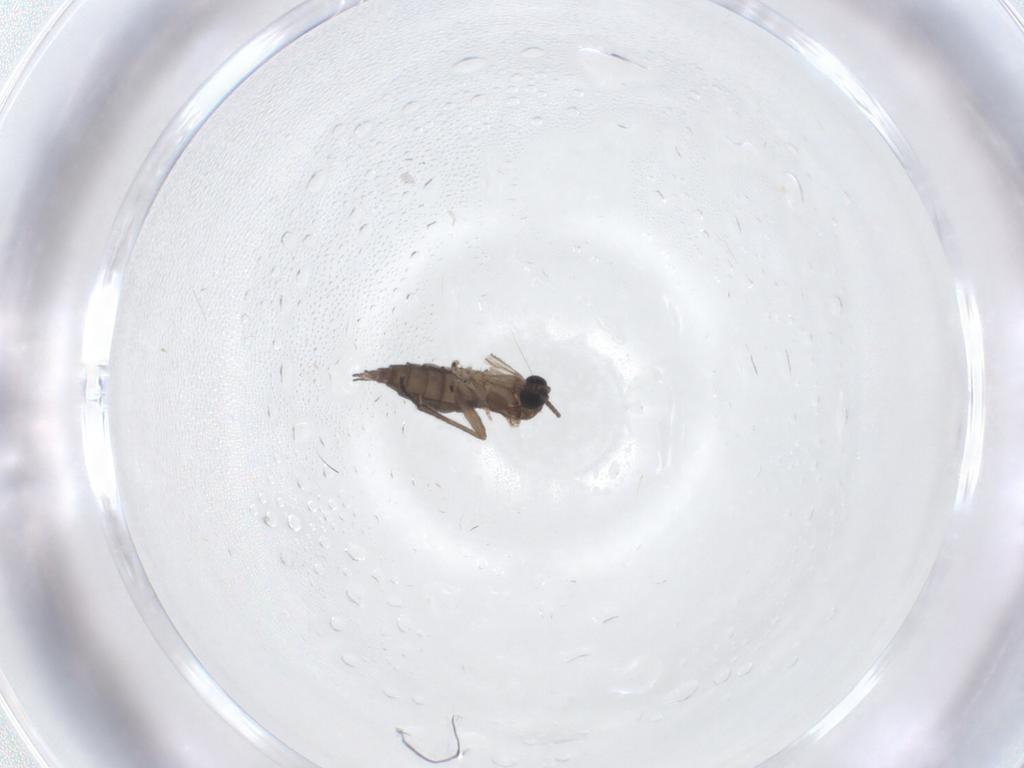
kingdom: Animalia
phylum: Arthropoda
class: Insecta
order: Diptera
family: Sciaridae
